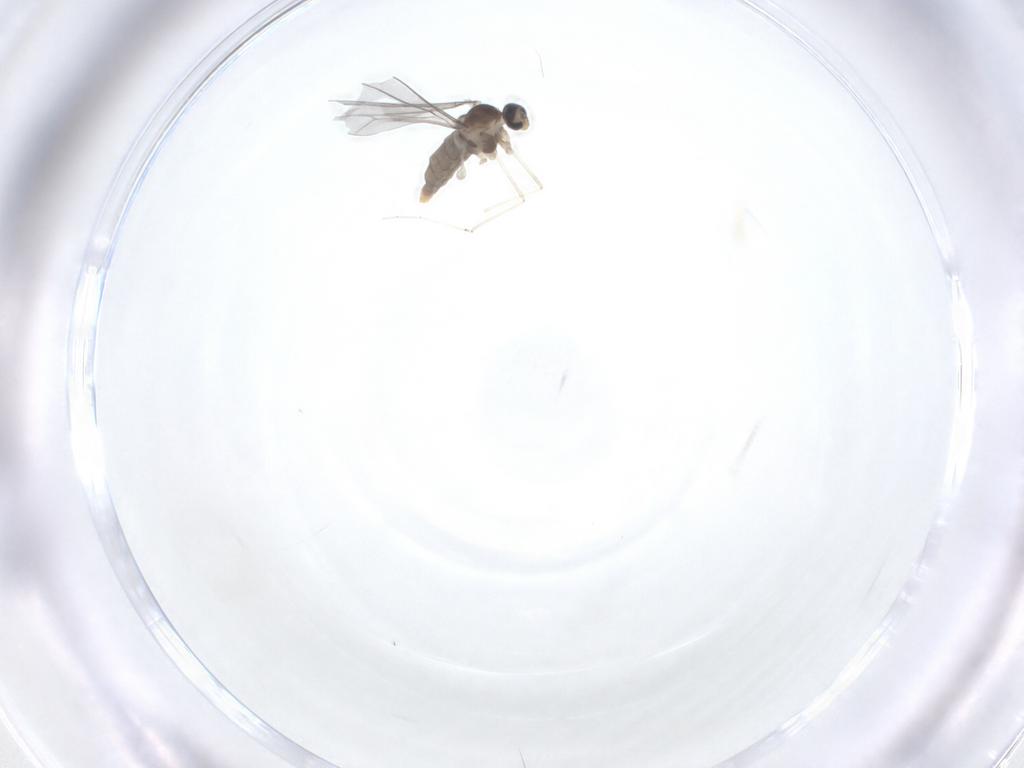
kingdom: Animalia
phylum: Arthropoda
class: Insecta
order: Diptera
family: Cecidomyiidae
